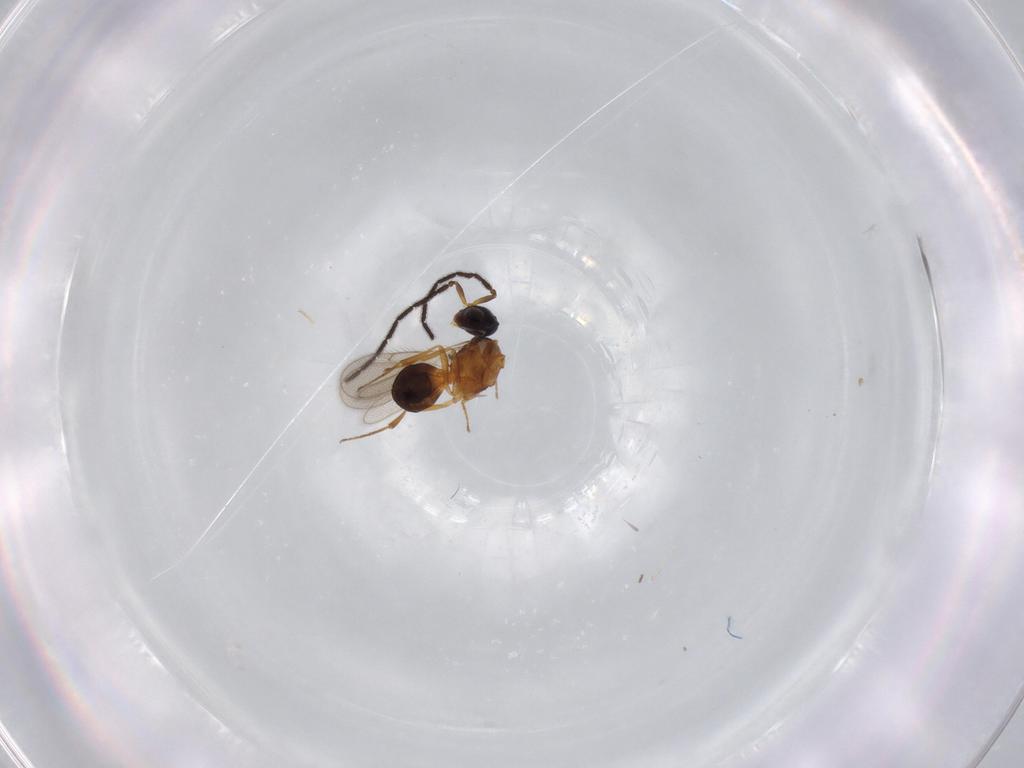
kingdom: Animalia
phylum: Arthropoda
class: Insecta
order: Hymenoptera
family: Scelionidae
